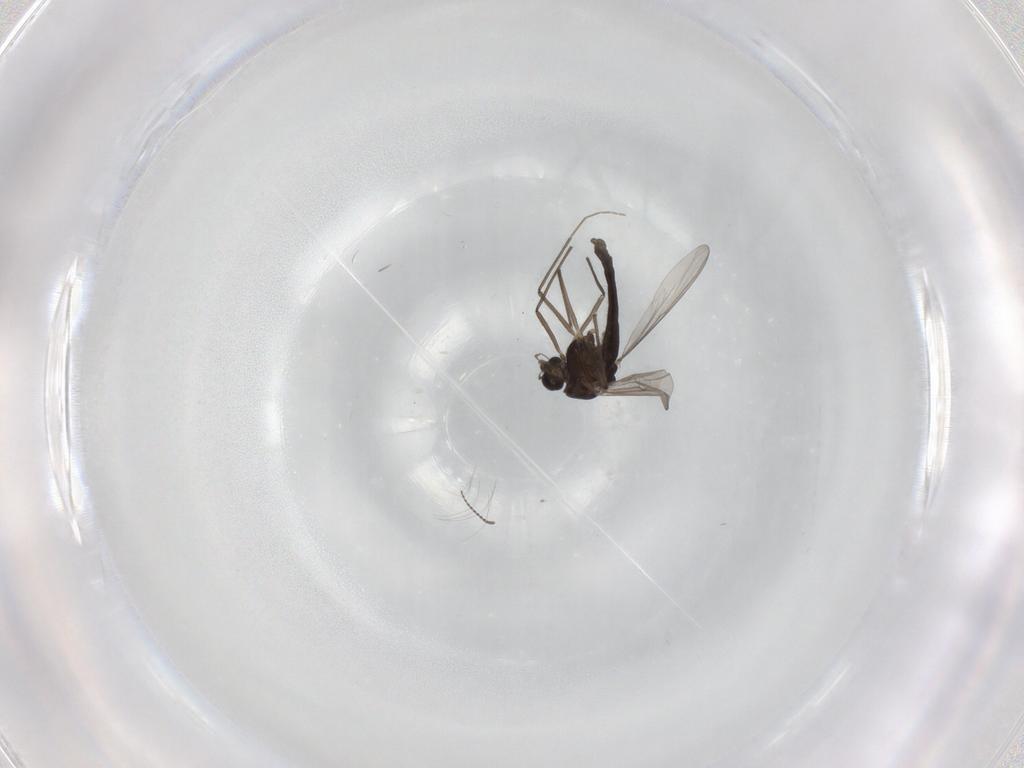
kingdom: Animalia
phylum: Arthropoda
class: Insecta
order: Diptera
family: Chironomidae
